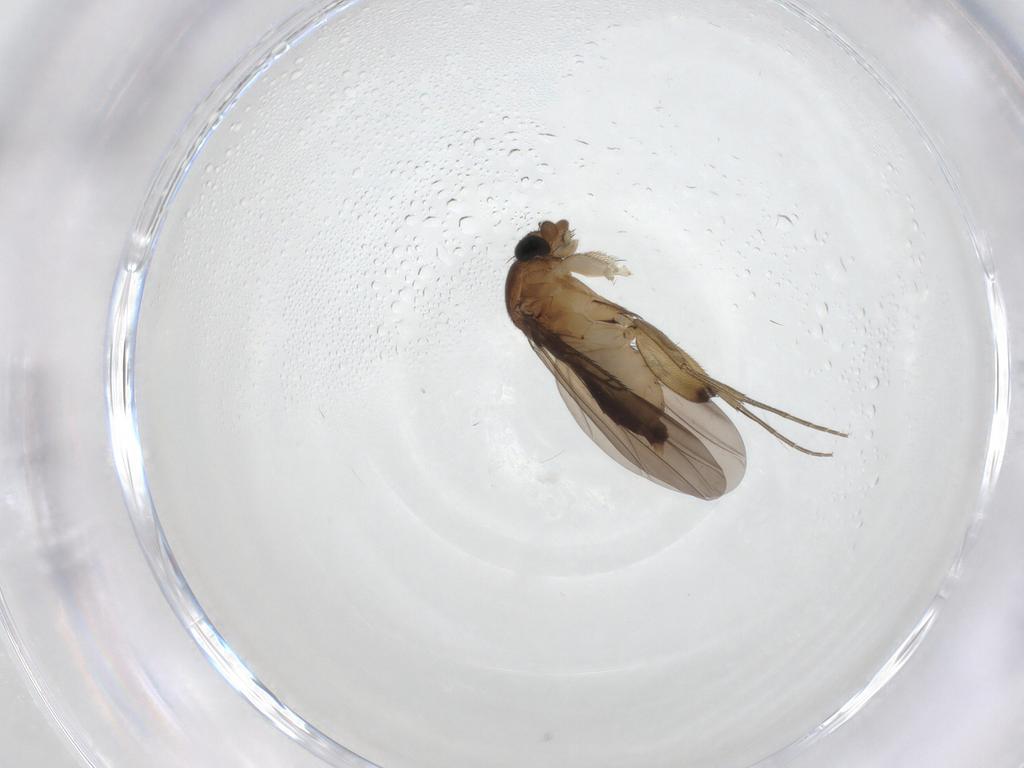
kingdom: Animalia
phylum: Arthropoda
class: Insecta
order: Diptera
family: Phoridae
